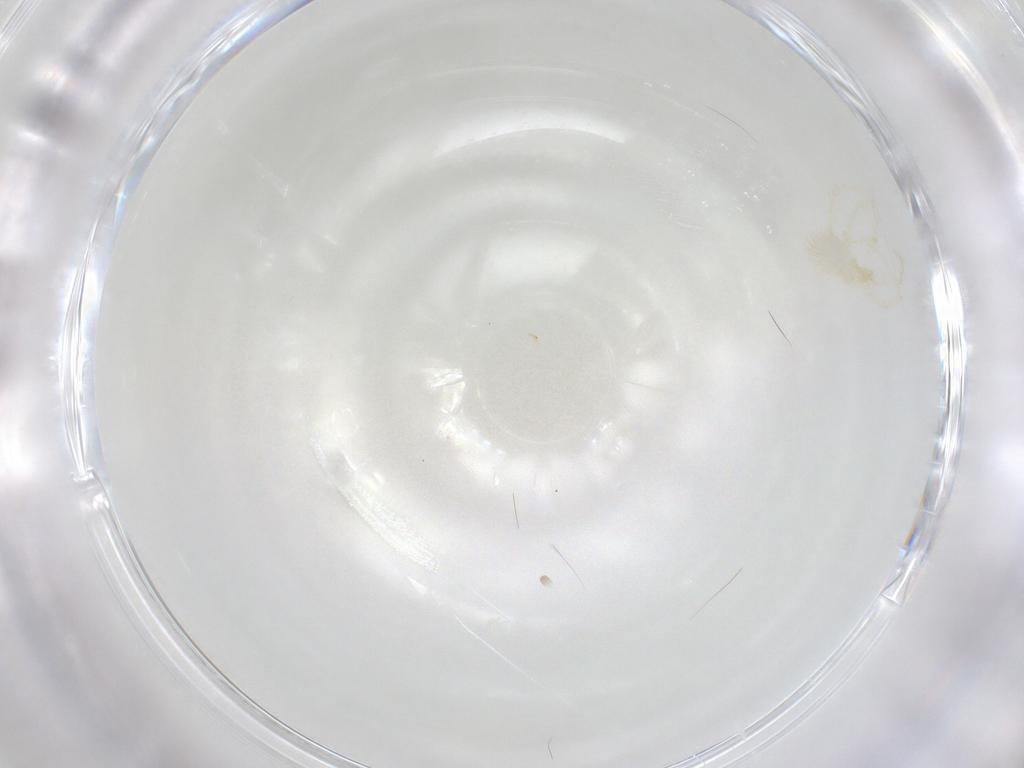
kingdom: Animalia
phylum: Arthropoda
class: Arachnida
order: Trombidiformes
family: Erythraeidae
